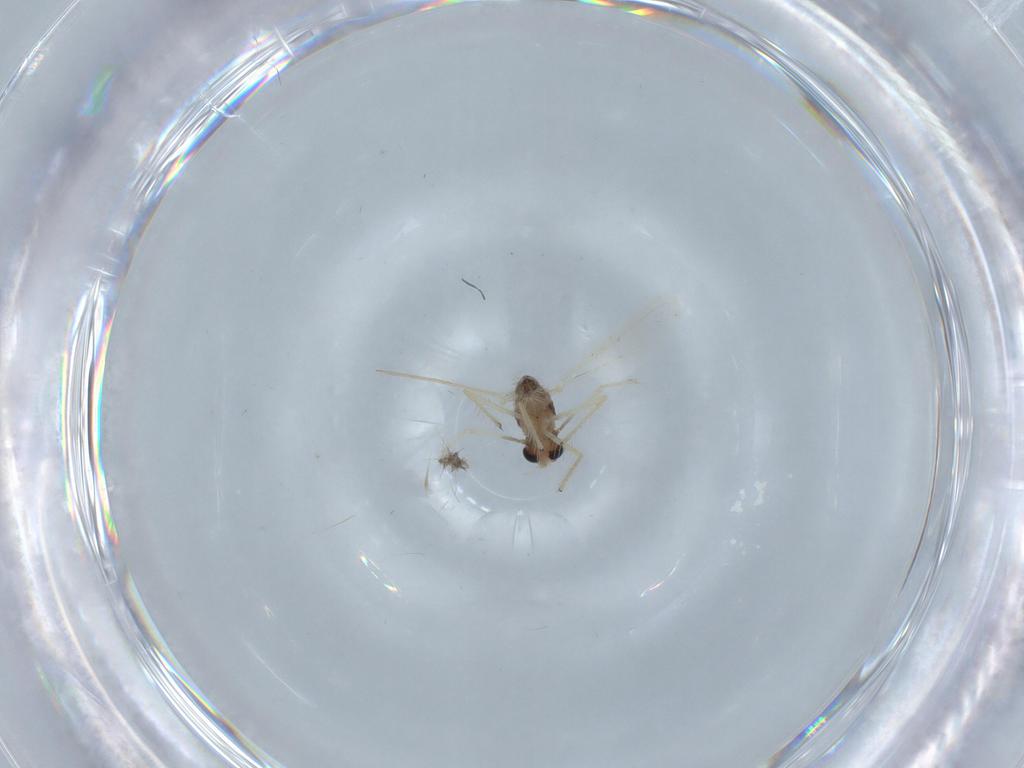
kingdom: Animalia
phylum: Arthropoda
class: Insecta
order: Diptera
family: Chironomidae
